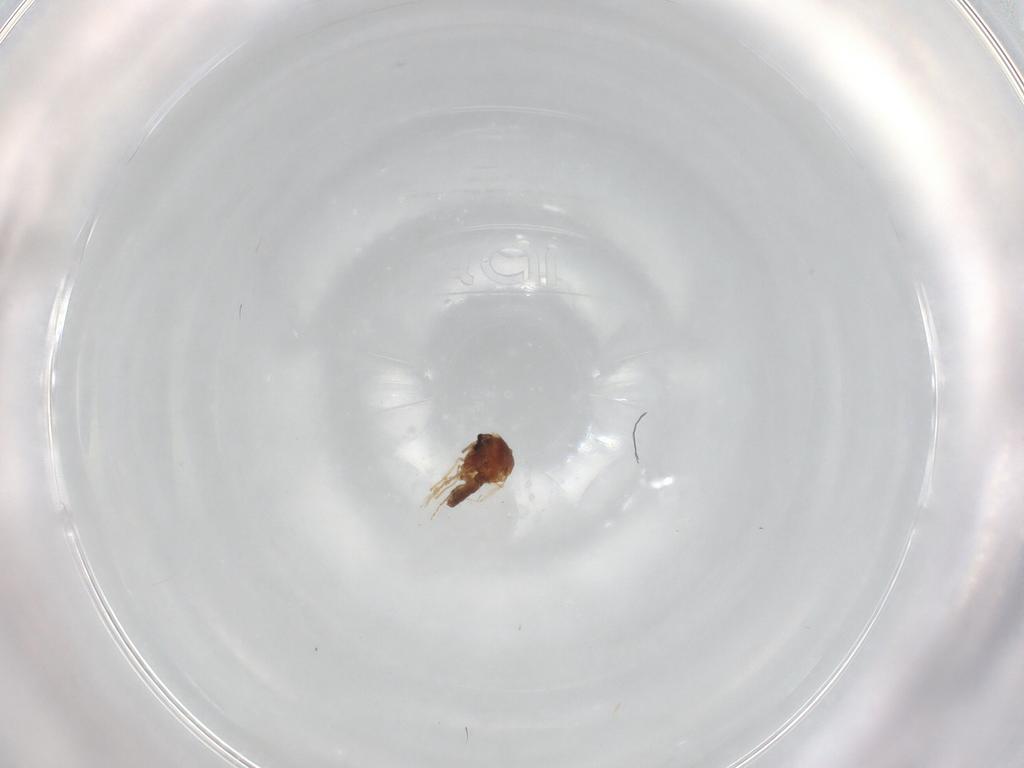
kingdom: Animalia
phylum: Arthropoda
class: Insecta
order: Diptera
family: Ceratopogonidae
